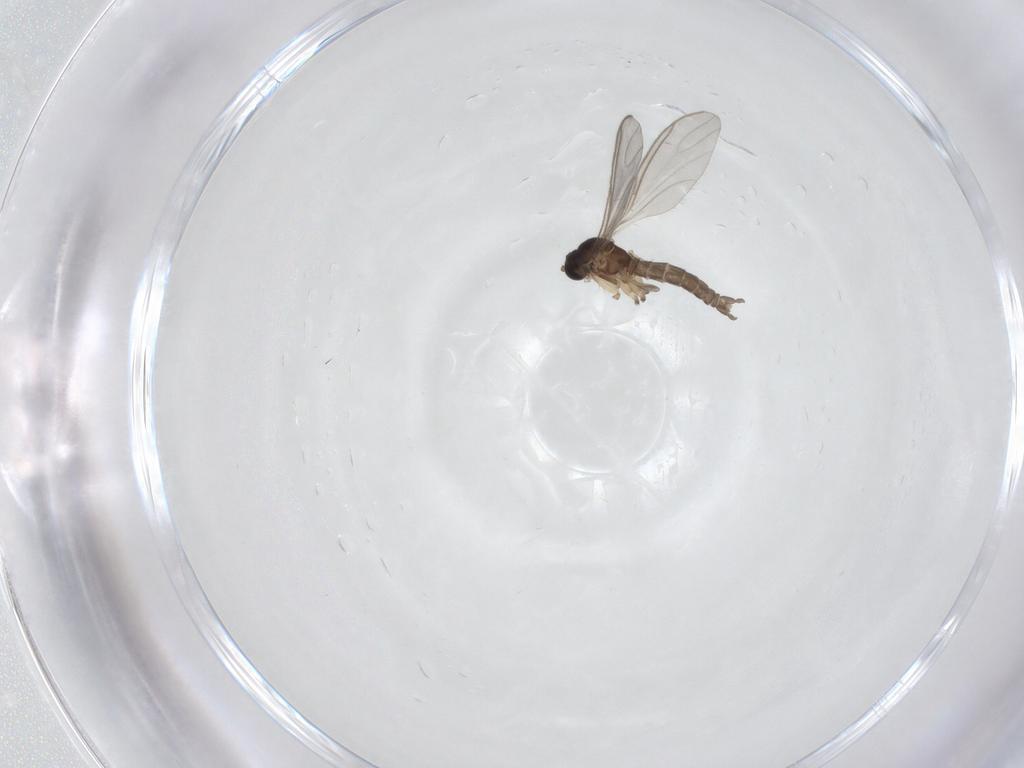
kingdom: Animalia
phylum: Arthropoda
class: Insecta
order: Diptera
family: Sciaridae
